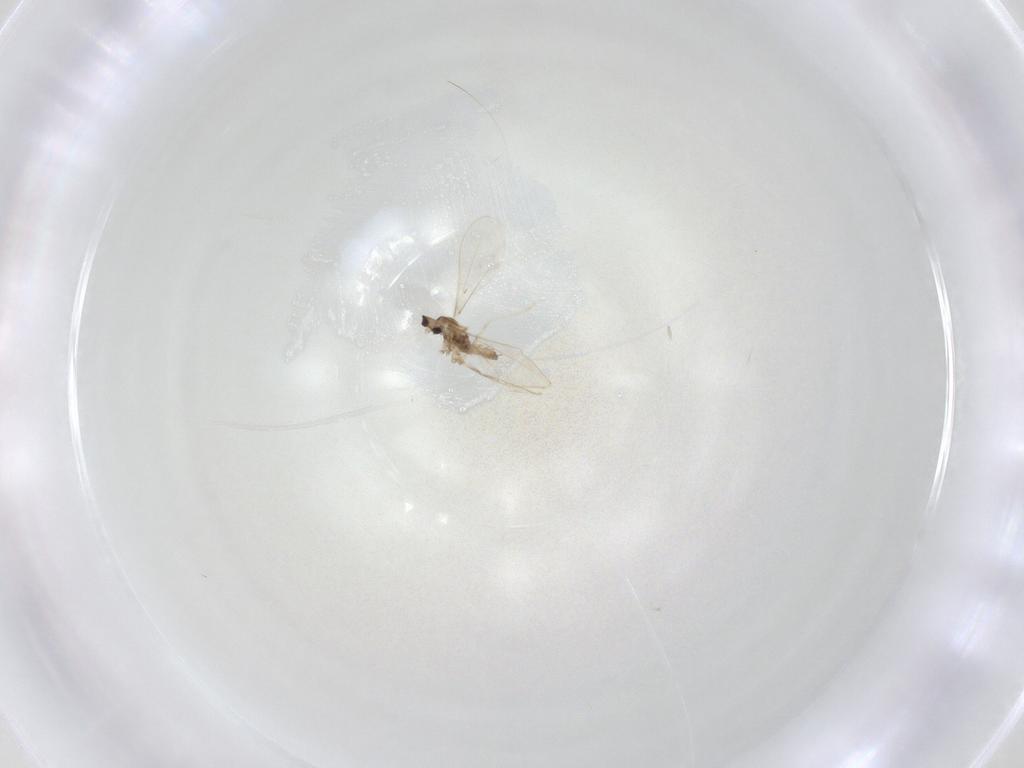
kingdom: Animalia
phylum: Arthropoda
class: Insecta
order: Diptera
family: Cecidomyiidae
